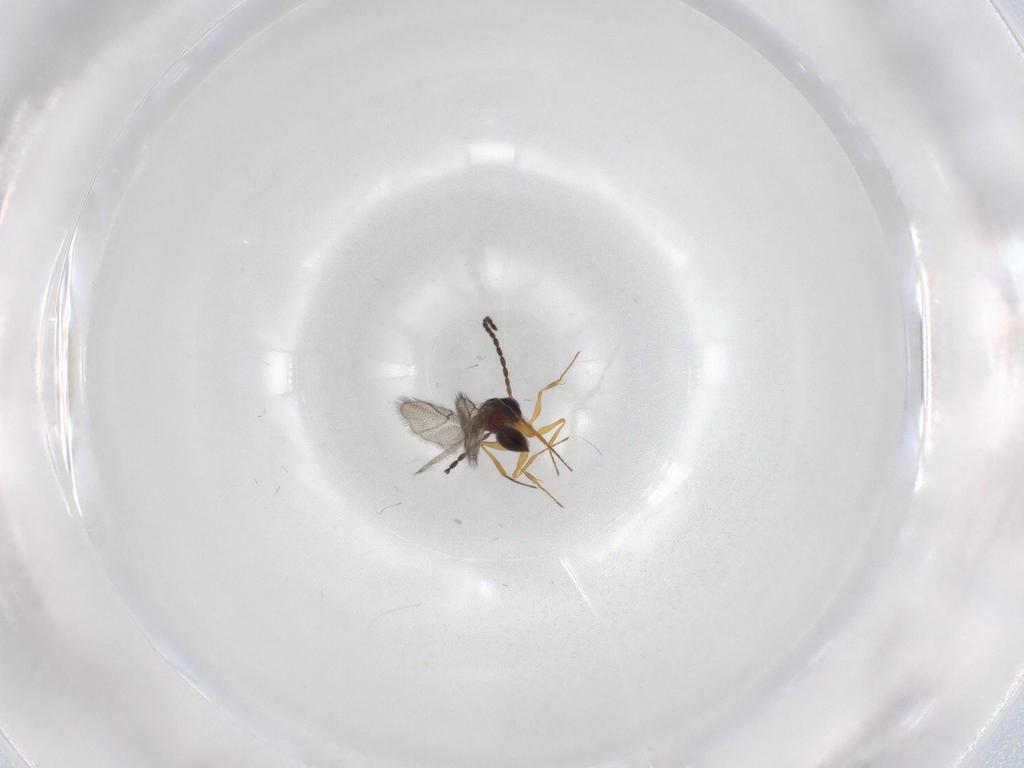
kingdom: Animalia
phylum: Arthropoda
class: Insecta
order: Hymenoptera
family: Figitidae
